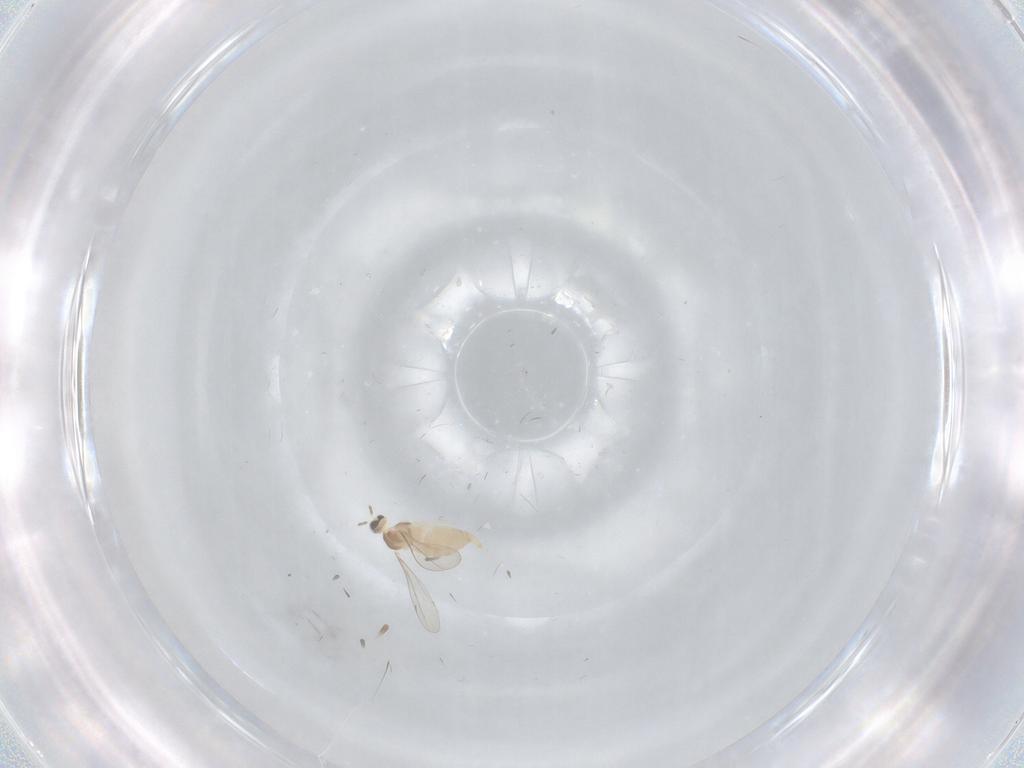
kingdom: Animalia
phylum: Arthropoda
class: Insecta
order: Diptera
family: Cecidomyiidae
